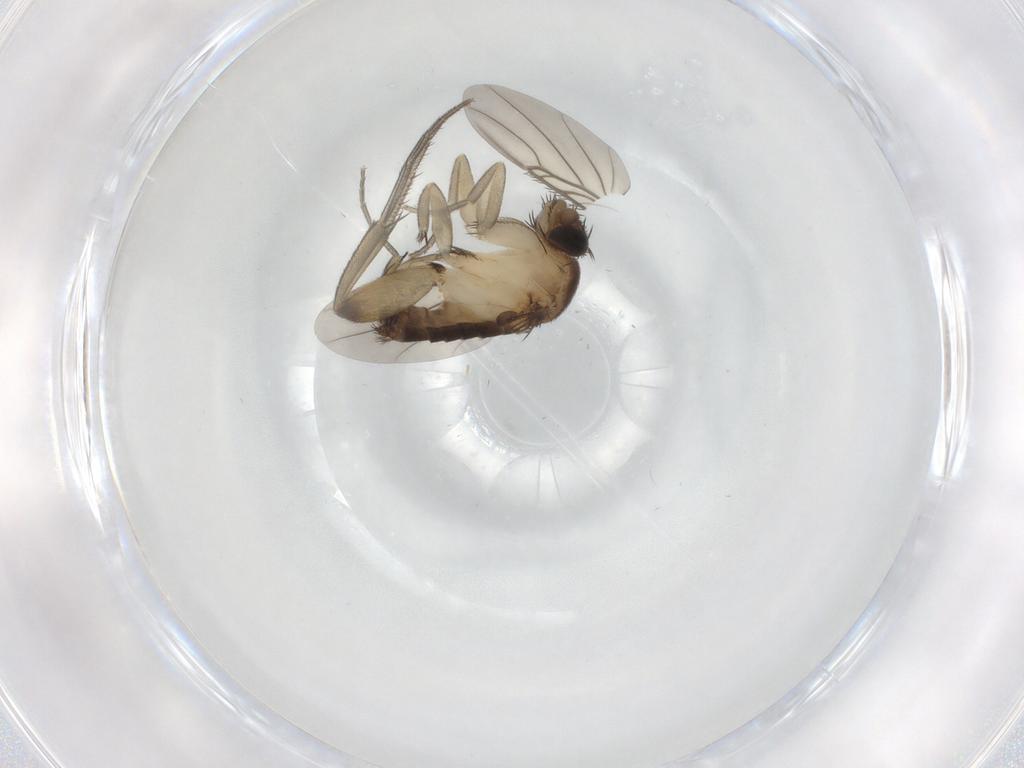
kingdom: Animalia
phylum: Arthropoda
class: Insecta
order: Diptera
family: Phoridae
